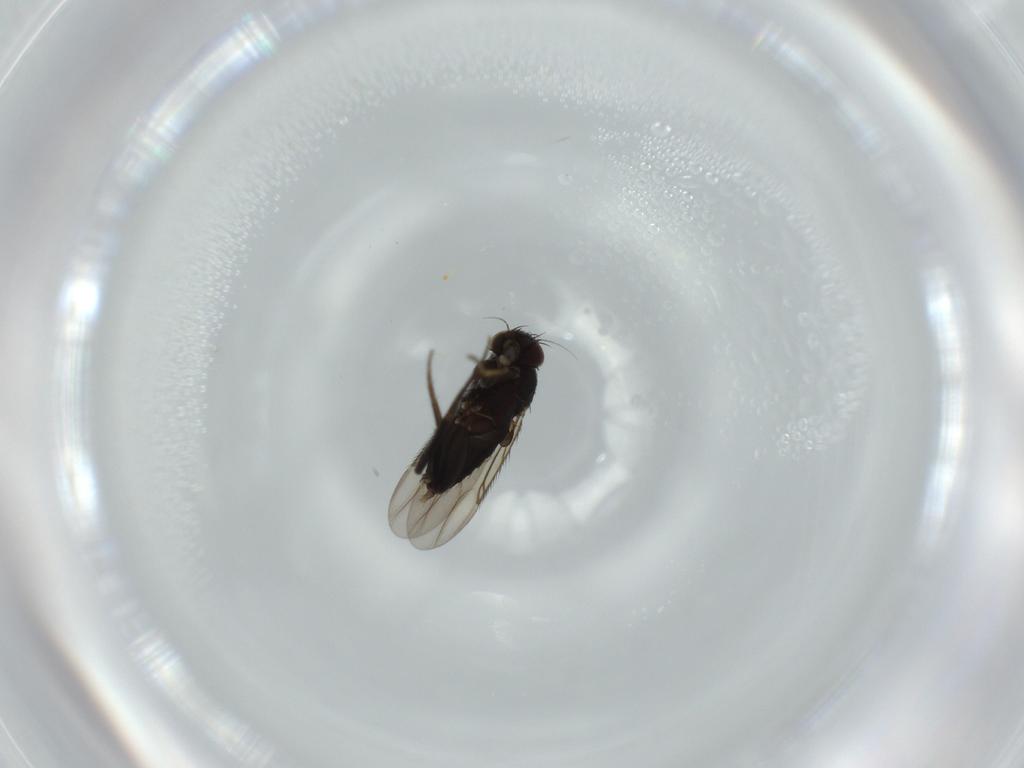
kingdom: Animalia
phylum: Arthropoda
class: Insecta
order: Diptera
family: Phoridae
